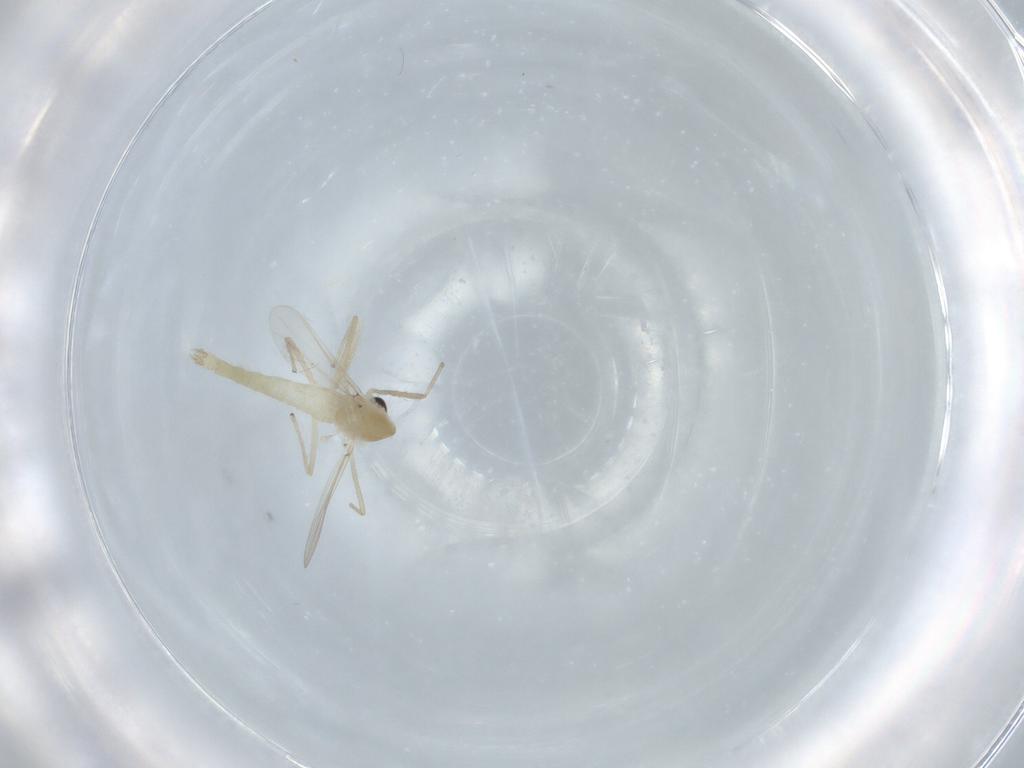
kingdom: Animalia
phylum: Arthropoda
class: Insecta
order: Diptera
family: Chironomidae
